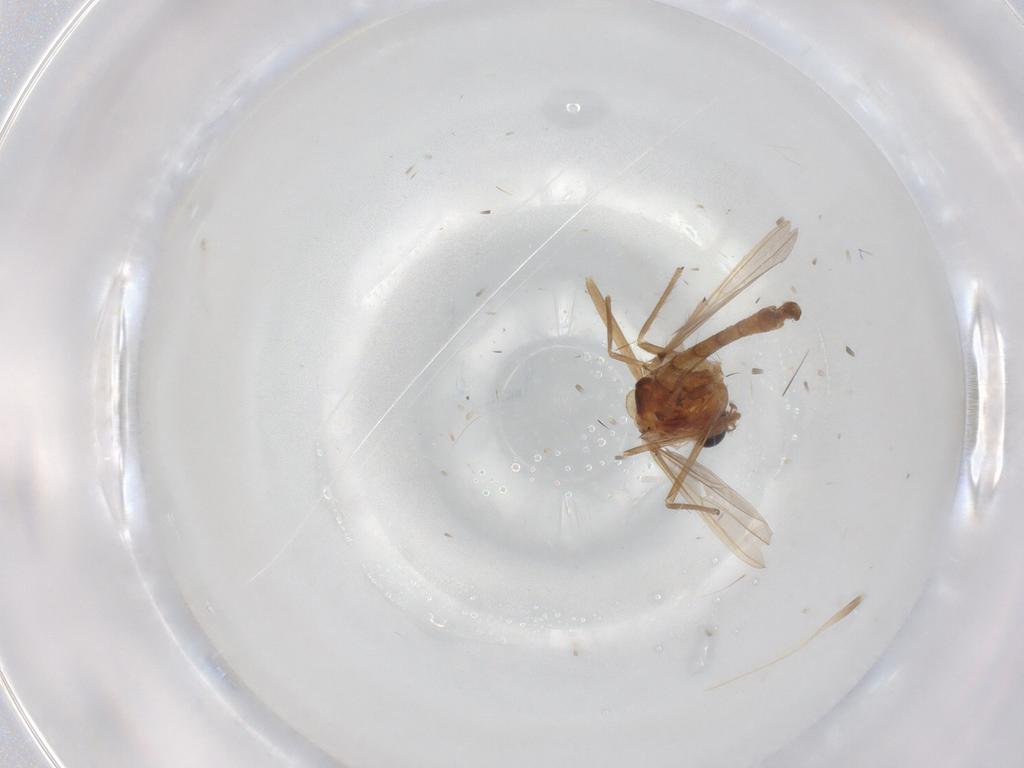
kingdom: Animalia
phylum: Arthropoda
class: Insecta
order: Diptera
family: Chironomidae
